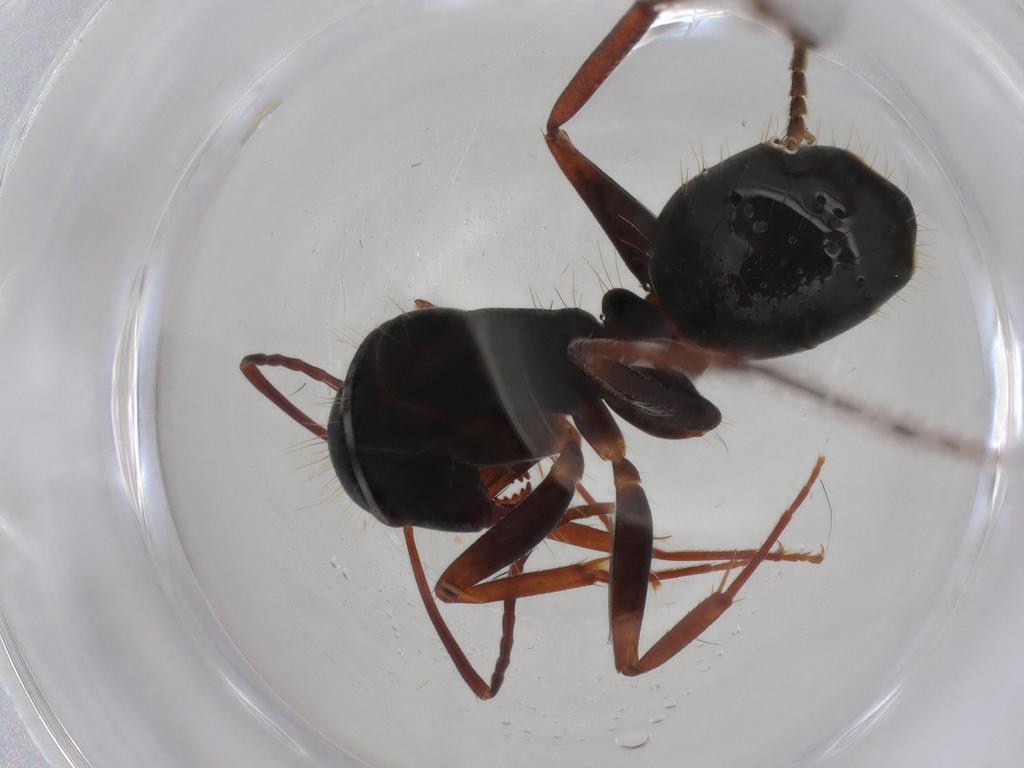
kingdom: Animalia
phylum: Arthropoda
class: Insecta
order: Hymenoptera
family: Formicidae
